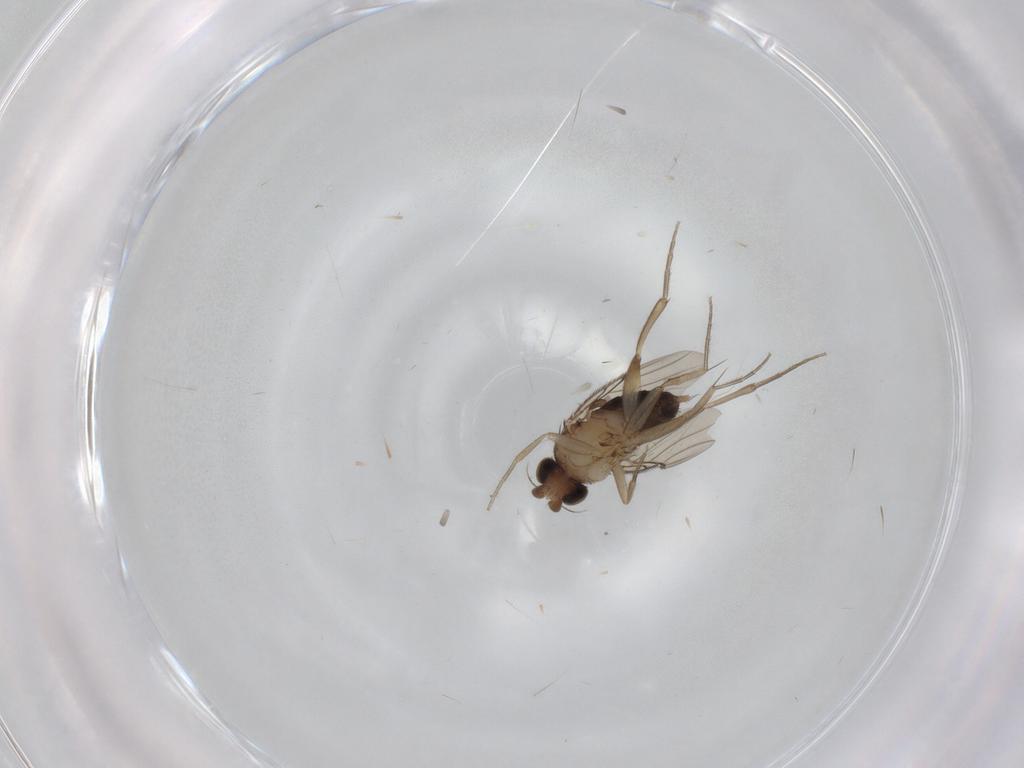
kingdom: Animalia
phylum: Arthropoda
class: Insecta
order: Diptera
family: Phoridae
